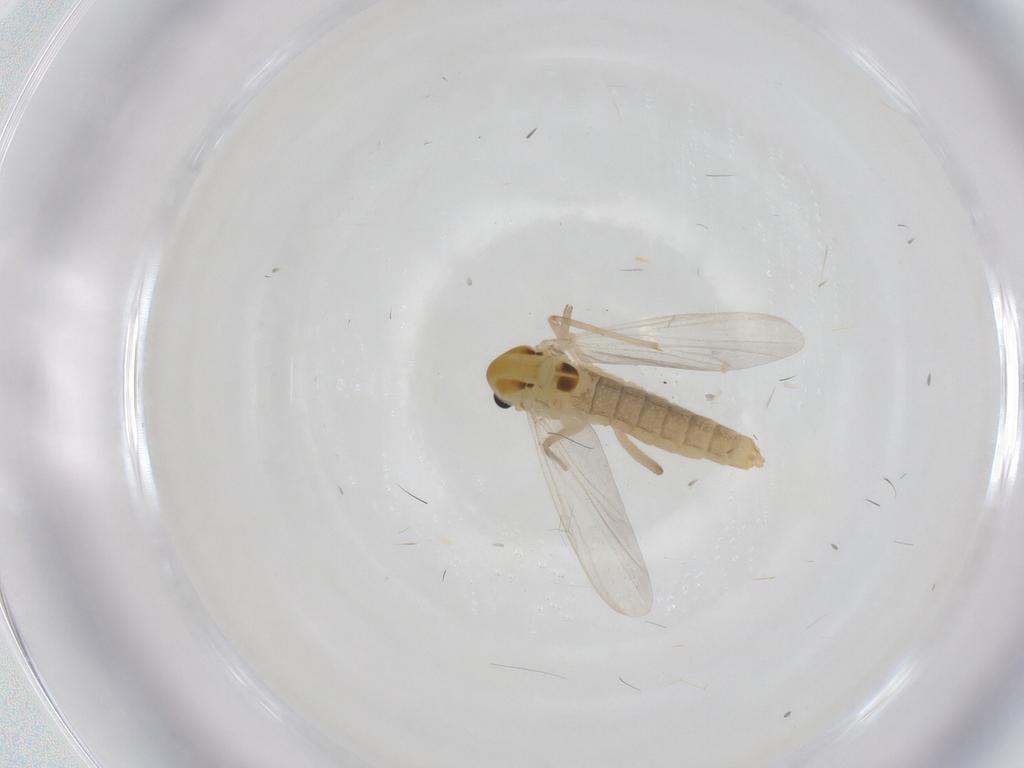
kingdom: Animalia
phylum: Arthropoda
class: Insecta
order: Diptera
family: Chironomidae
